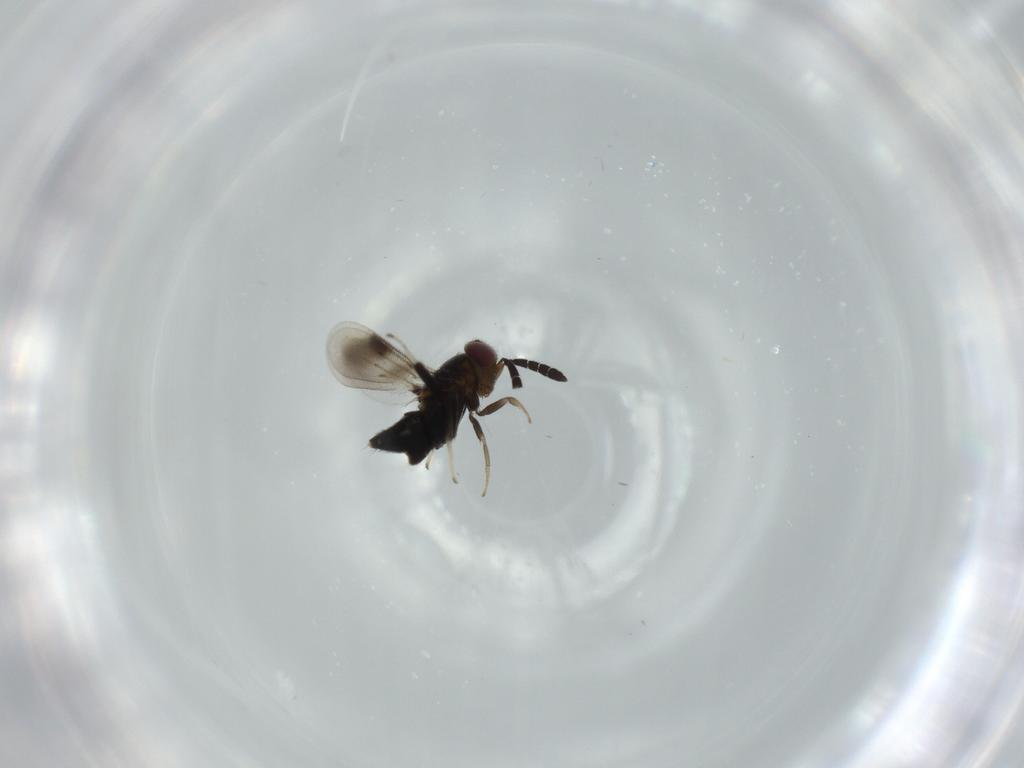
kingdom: Animalia
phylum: Arthropoda
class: Insecta
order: Hymenoptera
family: Aphelinidae
